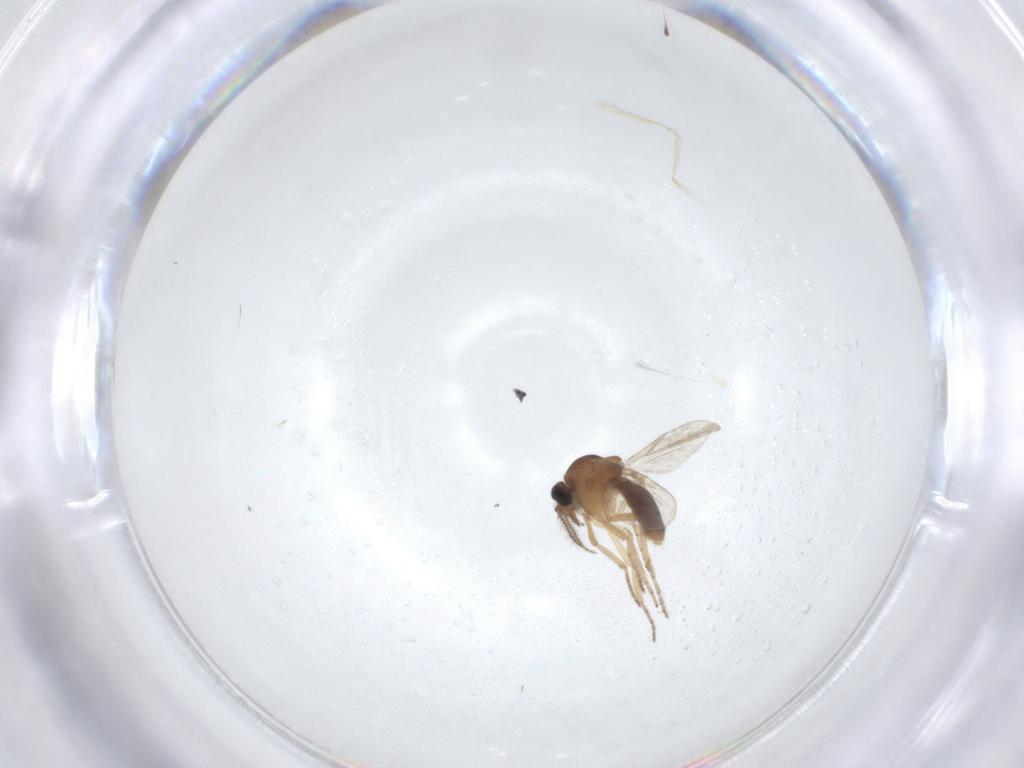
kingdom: Animalia
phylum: Arthropoda
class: Insecta
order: Diptera
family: Ceratopogonidae
